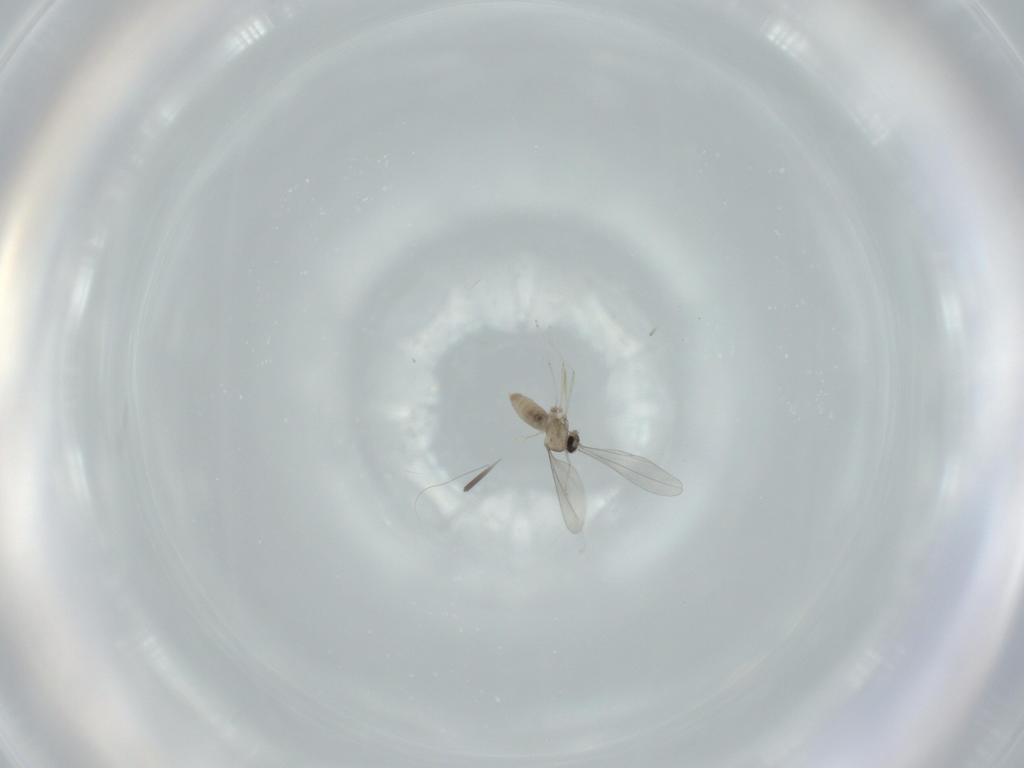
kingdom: Animalia
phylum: Arthropoda
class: Insecta
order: Diptera
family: Cecidomyiidae
